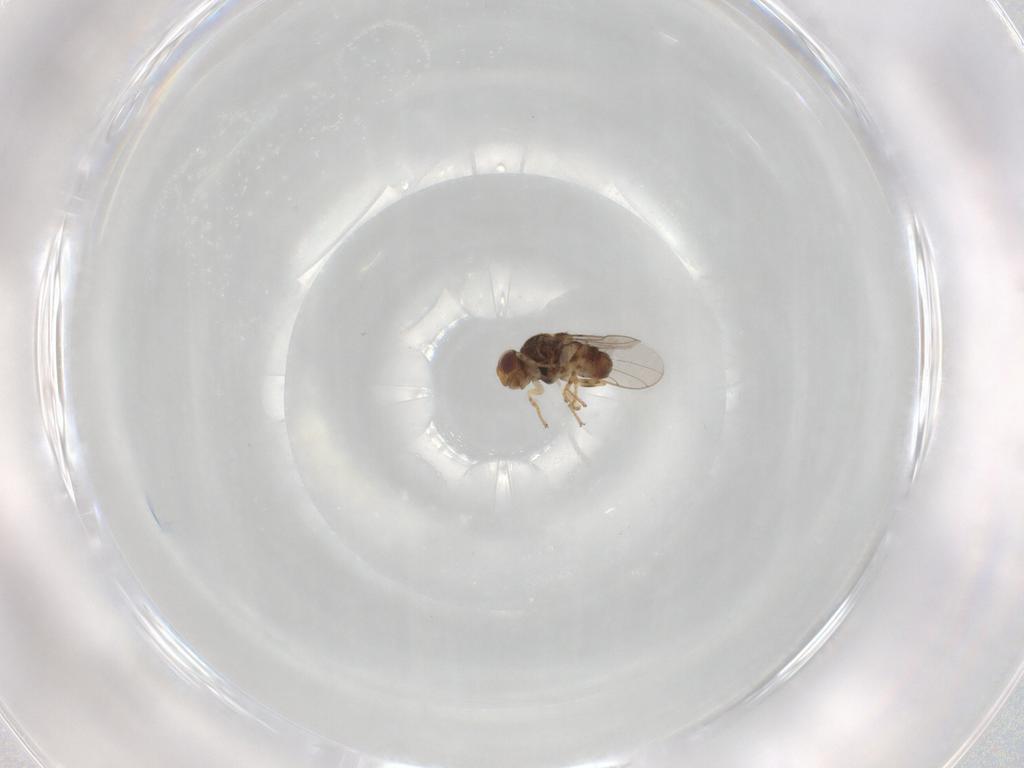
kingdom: Animalia
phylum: Arthropoda
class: Insecta
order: Diptera
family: Chloropidae
